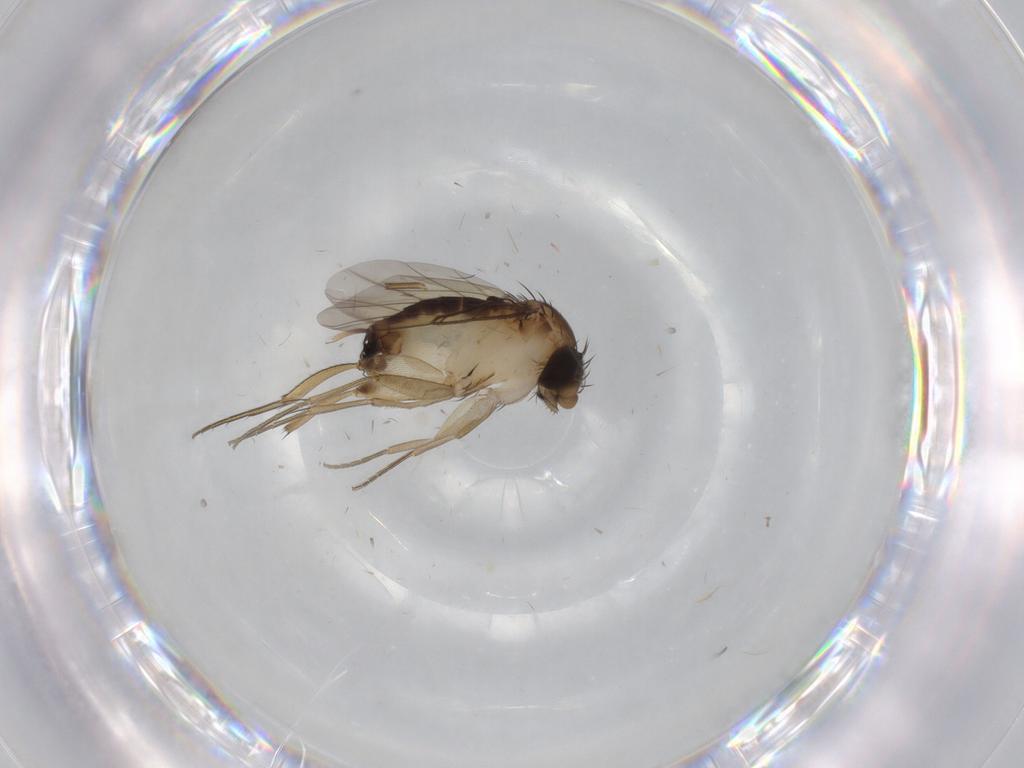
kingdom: Animalia
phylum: Arthropoda
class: Insecta
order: Diptera
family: Phoridae
